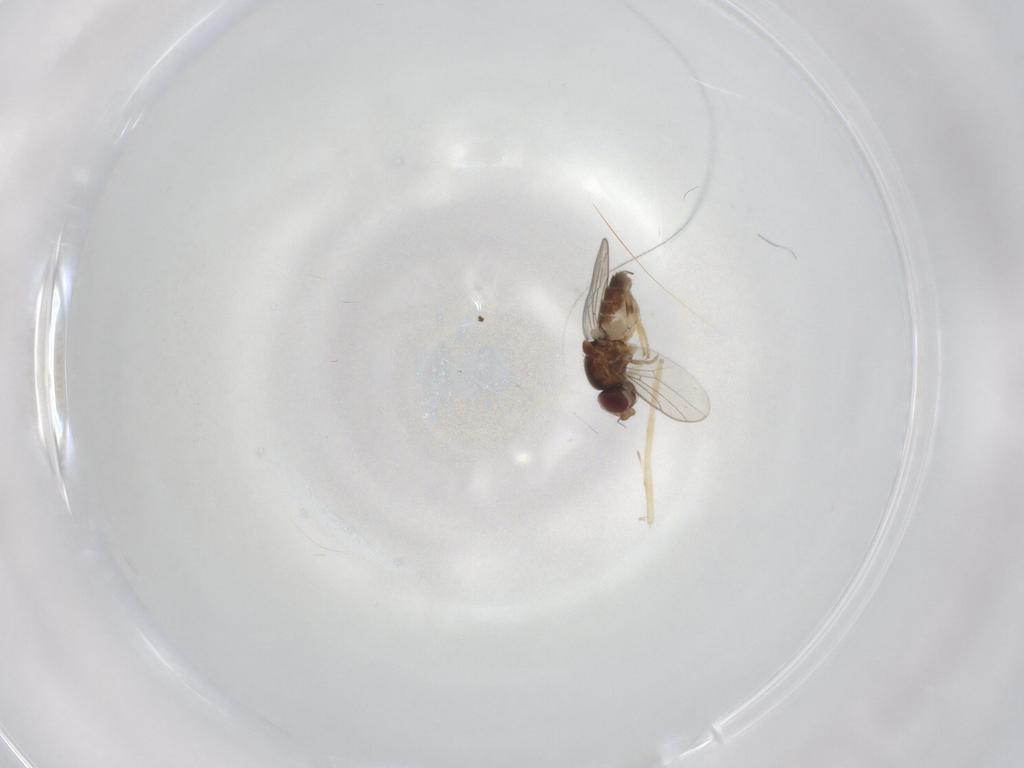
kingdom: Animalia
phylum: Arthropoda
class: Insecta
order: Diptera
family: Chloropidae
